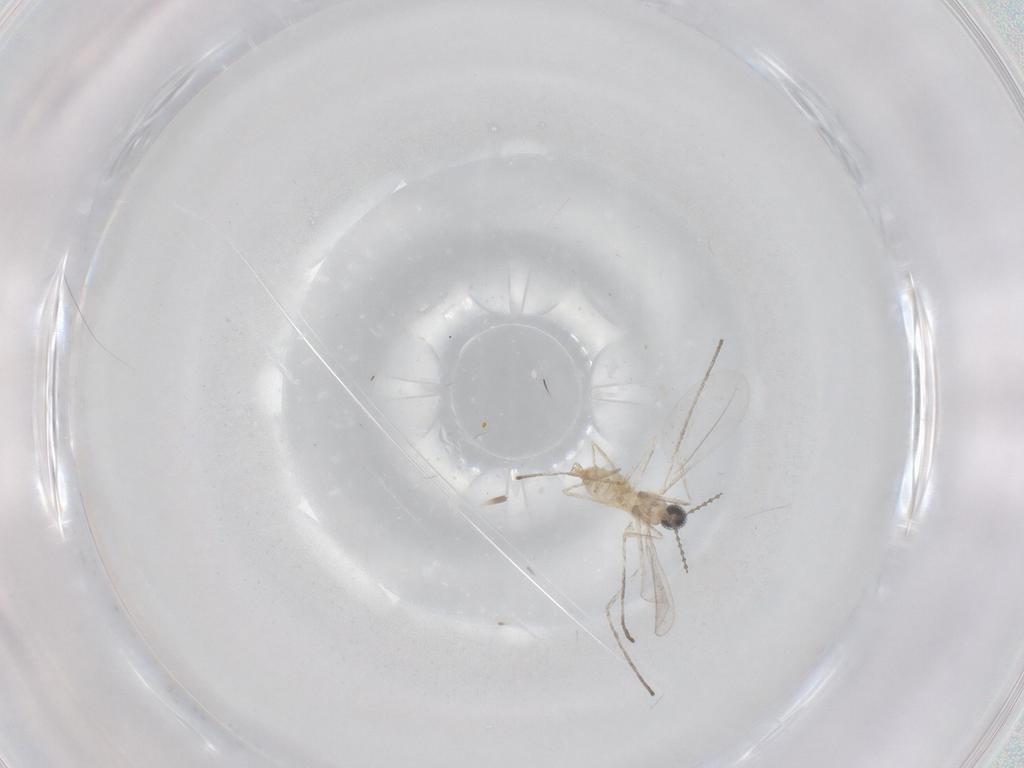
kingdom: Animalia
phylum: Arthropoda
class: Insecta
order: Diptera
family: Cecidomyiidae
